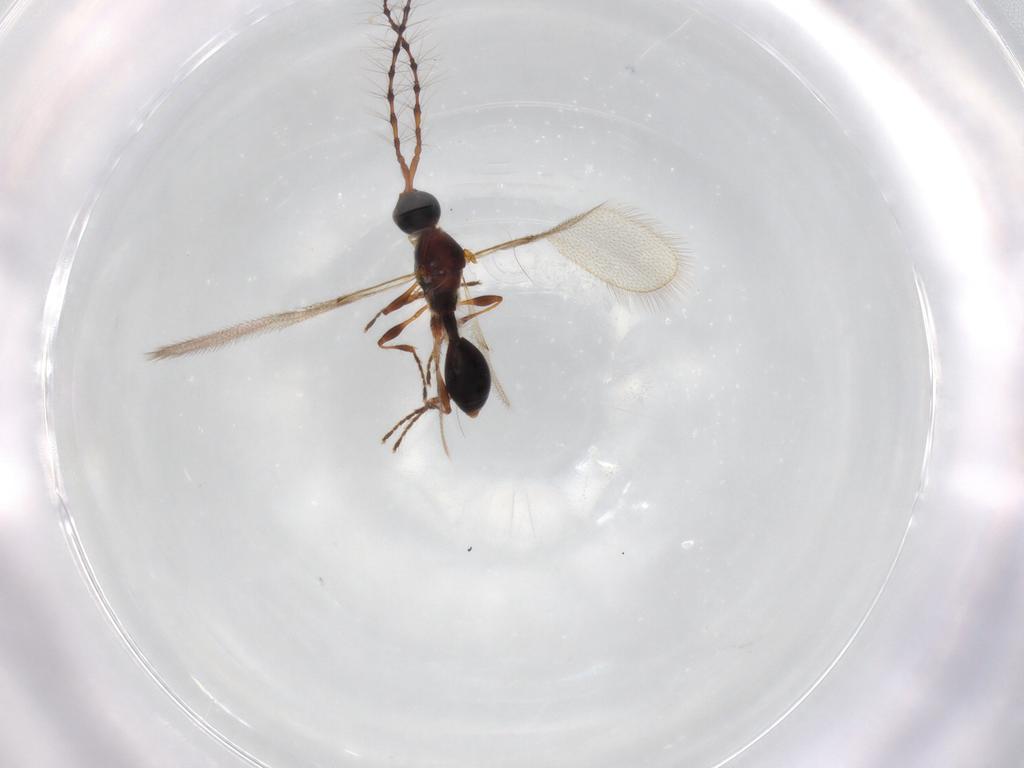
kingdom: Animalia
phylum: Arthropoda
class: Insecta
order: Hymenoptera
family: Diapriidae
